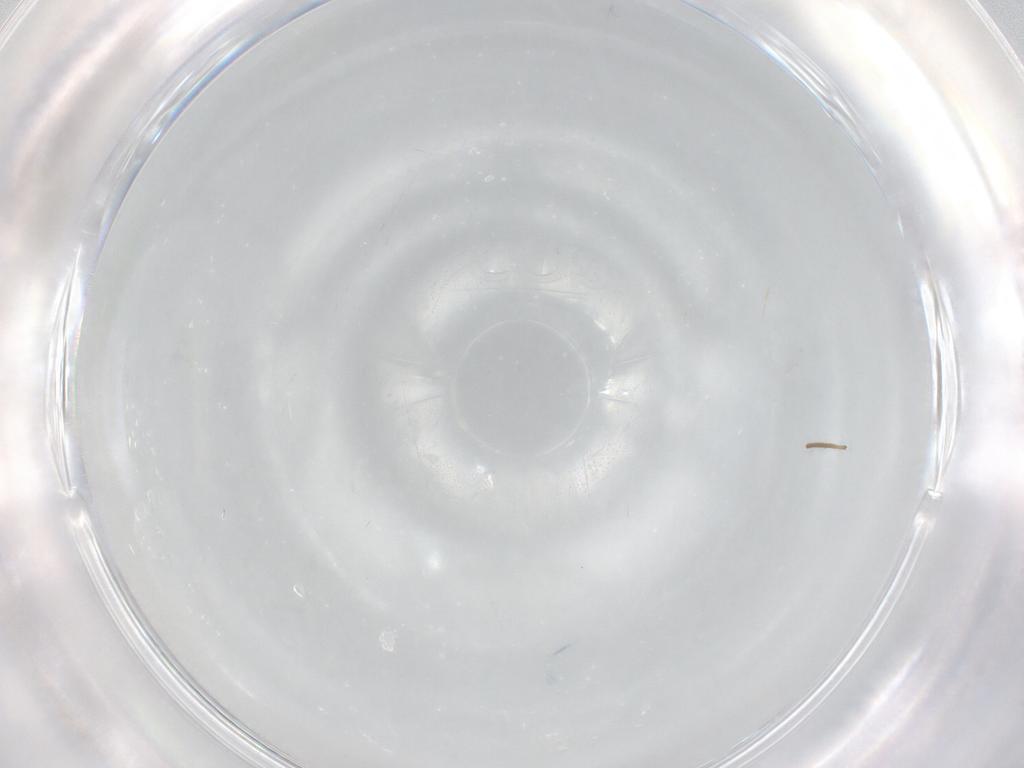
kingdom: Animalia
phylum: Arthropoda
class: Insecta
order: Diptera
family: Chironomidae
